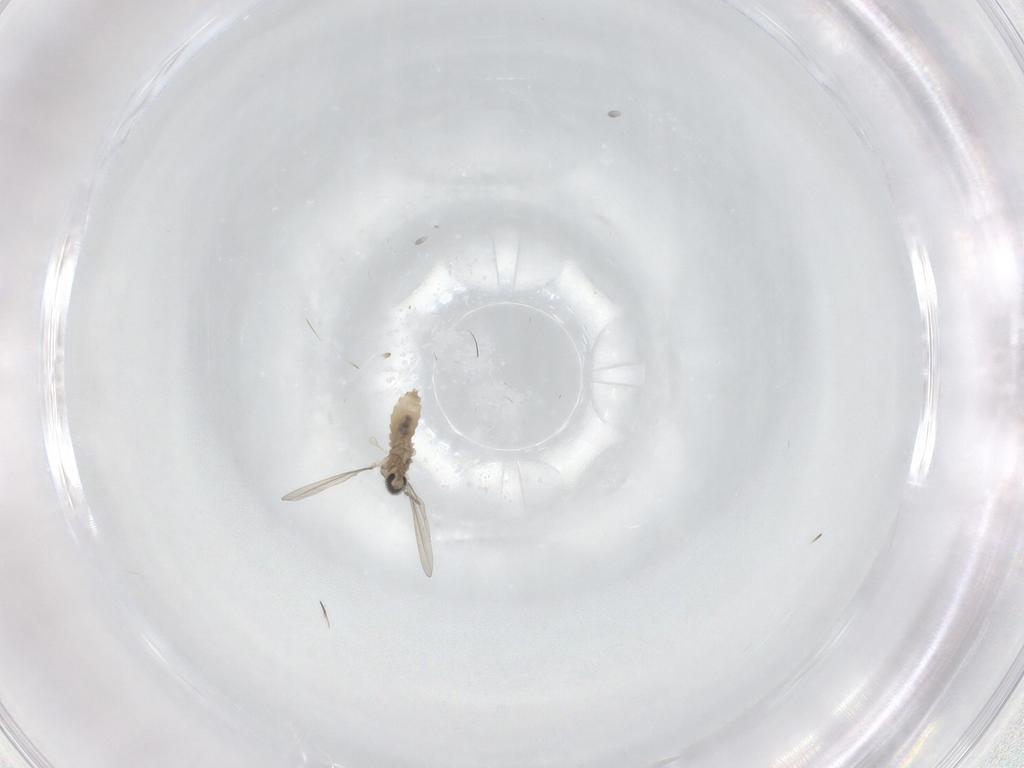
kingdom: Animalia
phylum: Arthropoda
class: Insecta
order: Diptera
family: Cecidomyiidae
